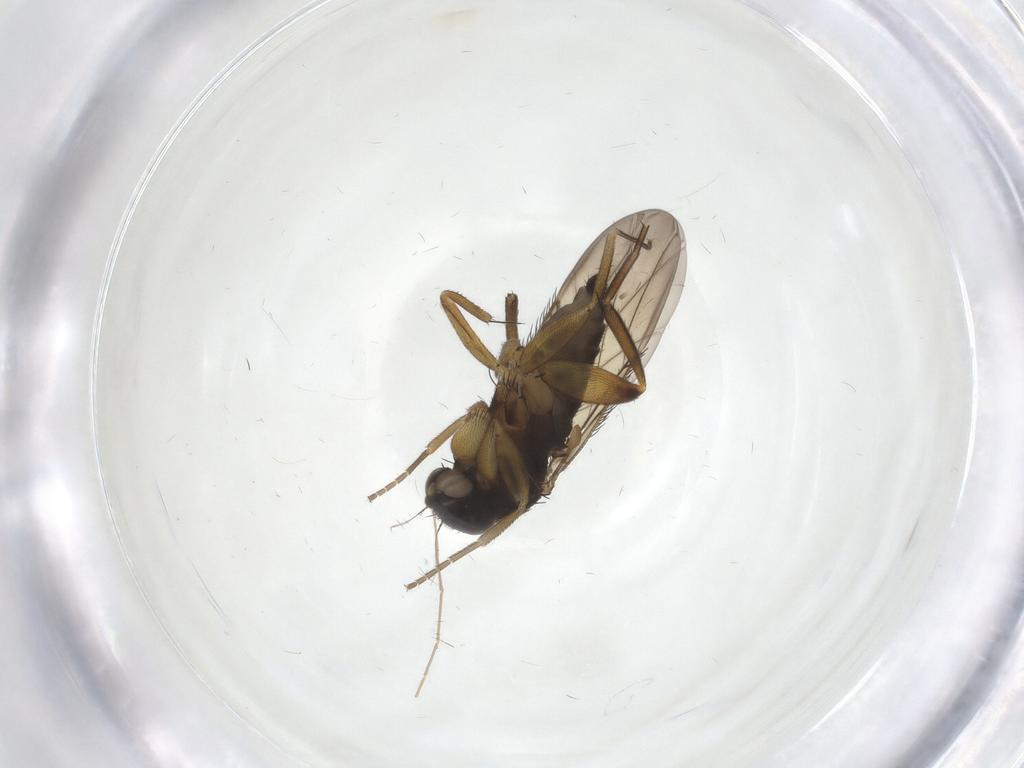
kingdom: Animalia
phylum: Arthropoda
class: Insecta
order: Diptera
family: Phoridae
